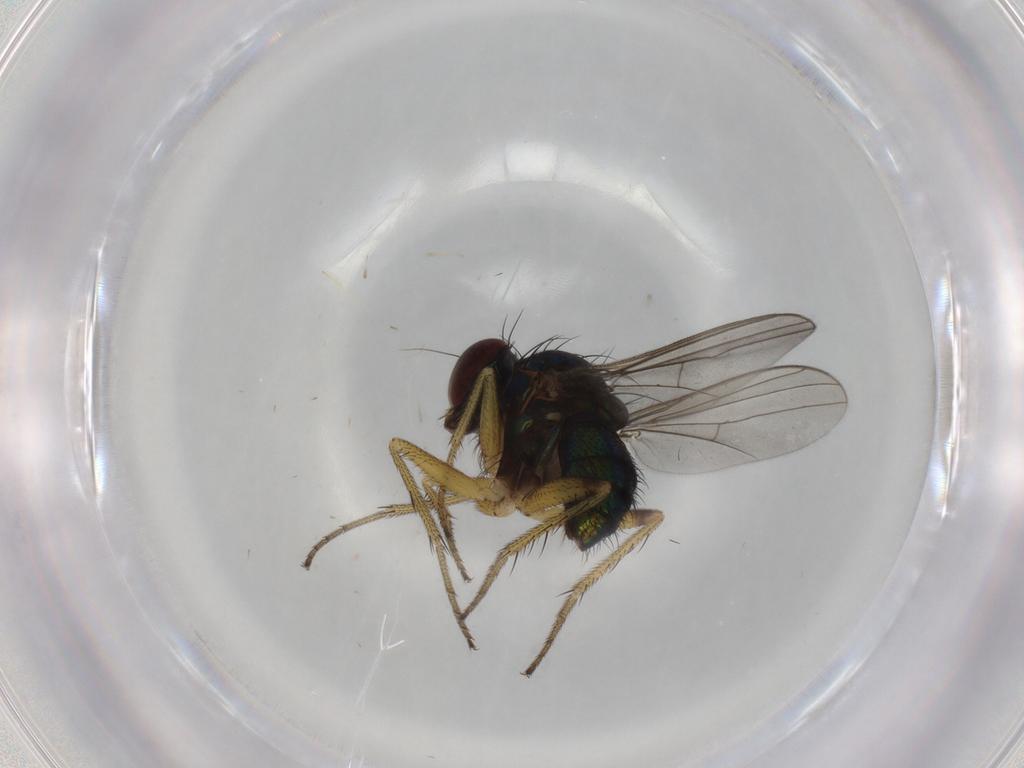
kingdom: Animalia
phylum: Arthropoda
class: Insecta
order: Diptera
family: Dolichopodidae
